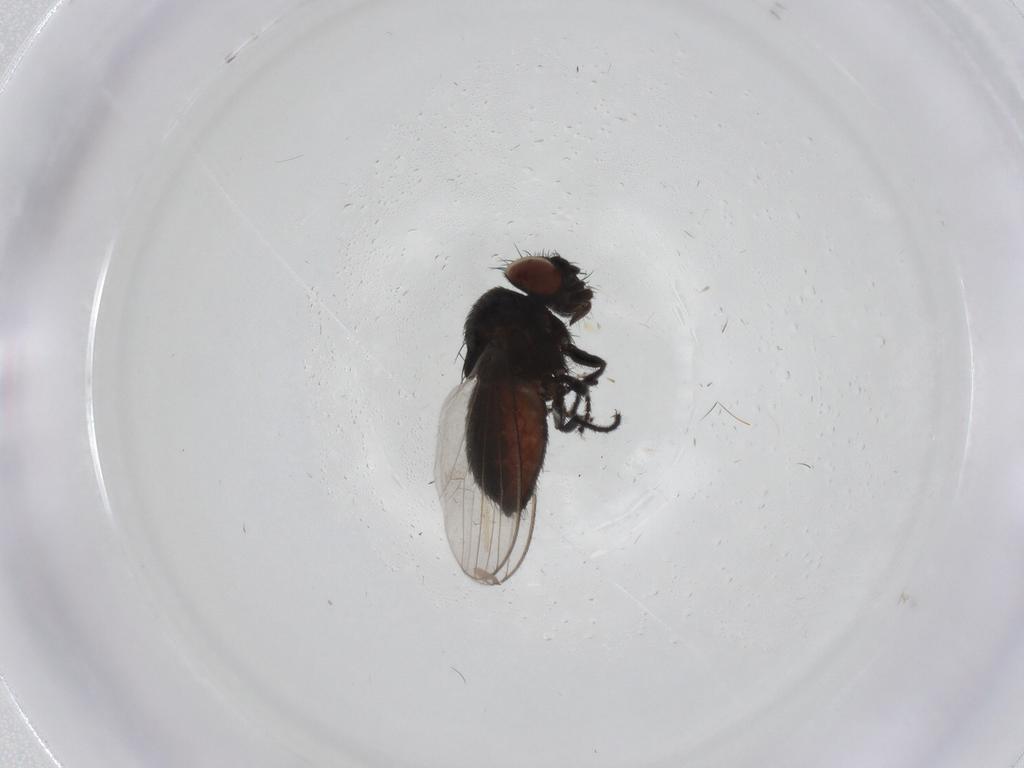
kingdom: Animalia
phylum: Arthropoda
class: Insecta
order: Diptera
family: Milichiidae
